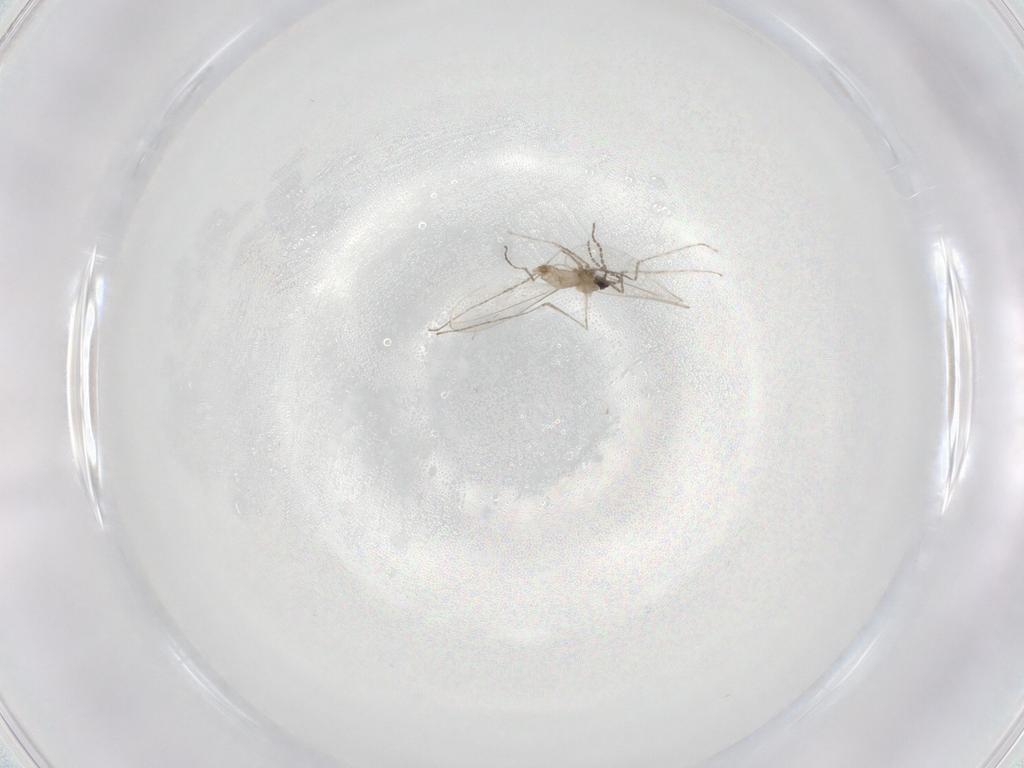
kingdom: Animalia
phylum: Arthropoda
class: Insecta
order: Diptera
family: Cecidomyiidae
